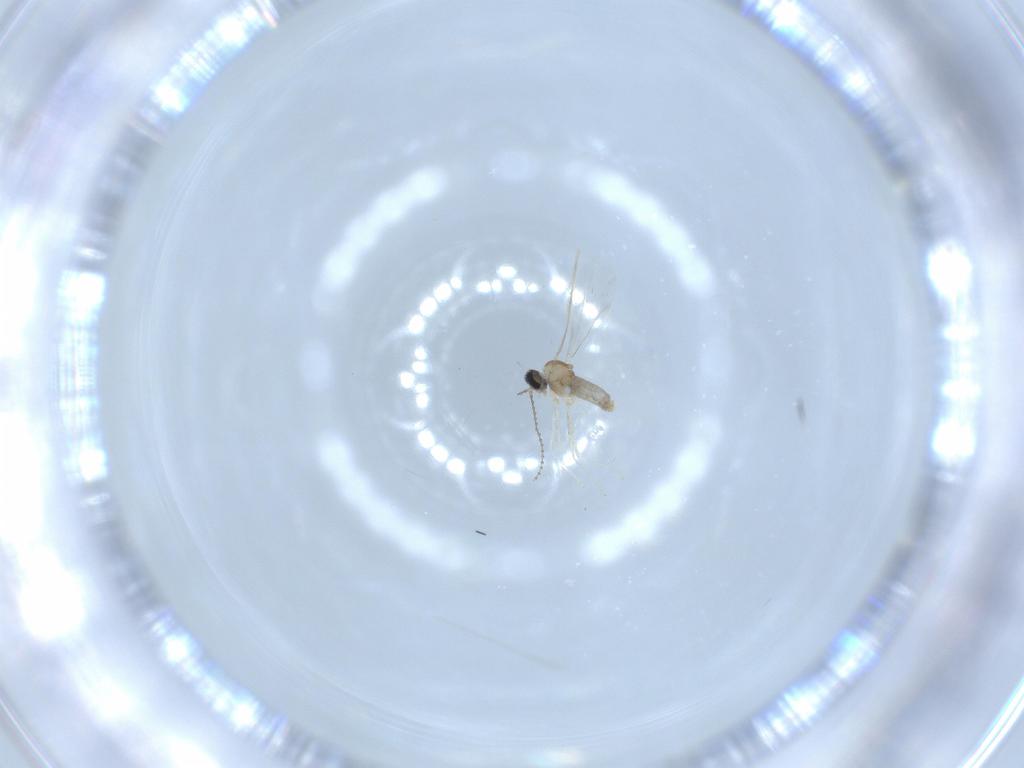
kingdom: Animalia
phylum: Arthropoda
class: Insecta
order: Diptera
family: Cecidomyiidae
